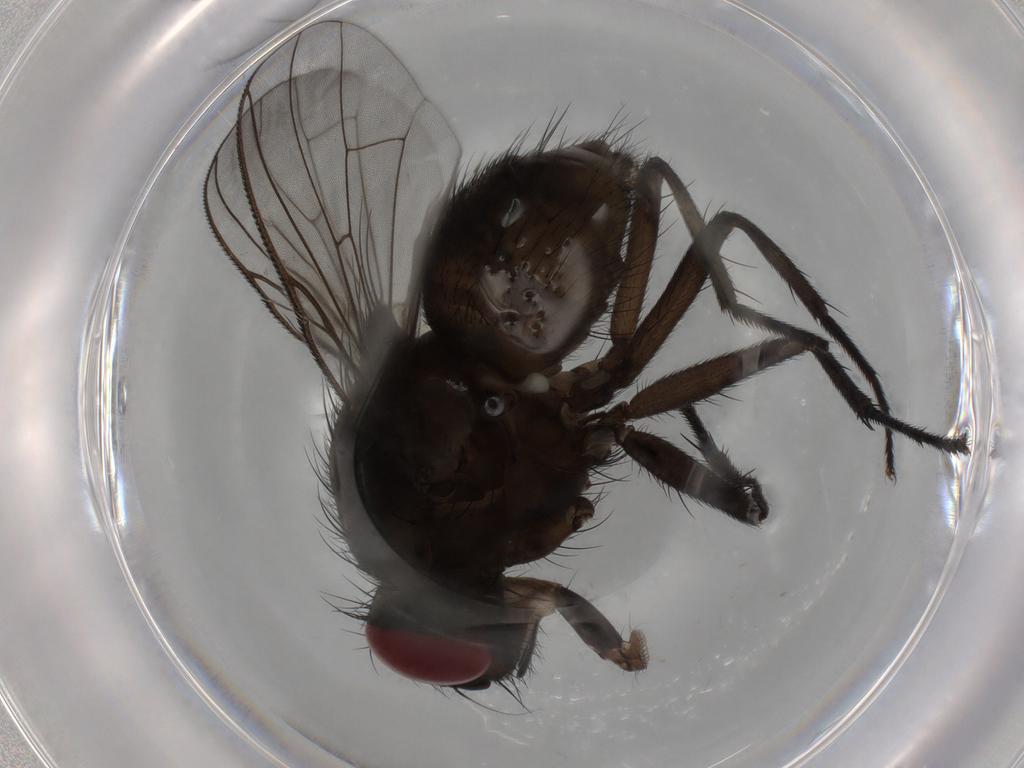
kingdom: Animalia
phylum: Arthropoda
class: Insecta
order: Diptera
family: Muscidae
